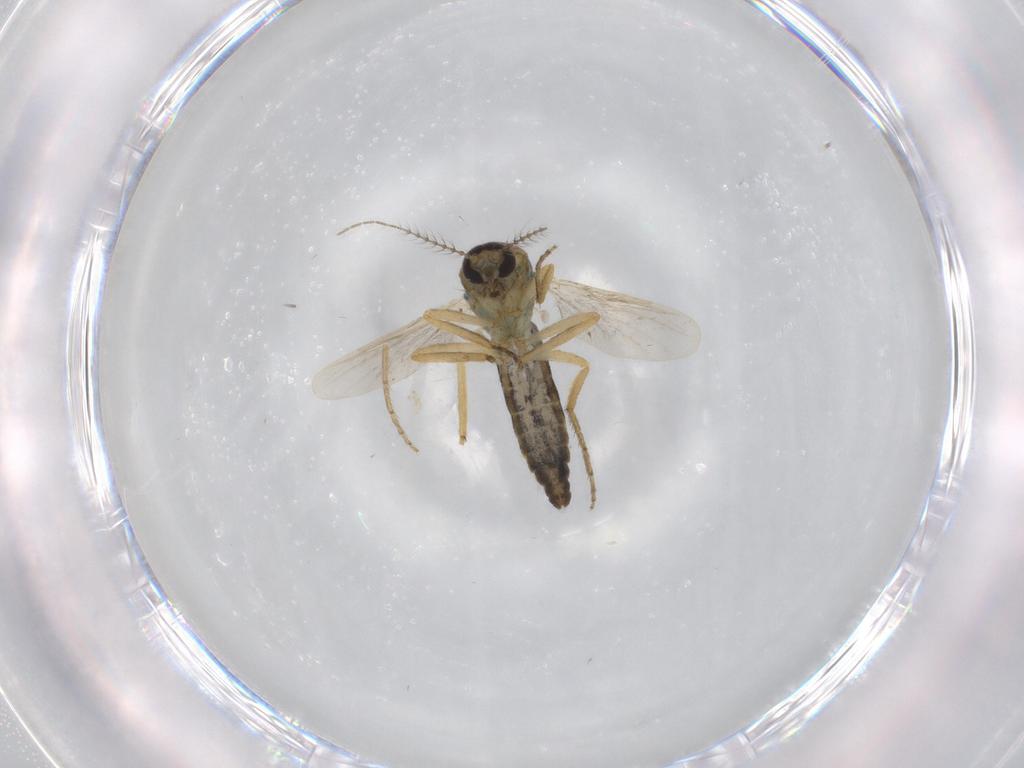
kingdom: Animalia
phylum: Arthropoda
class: Insecta
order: Diptera
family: Ceratopogonidae
